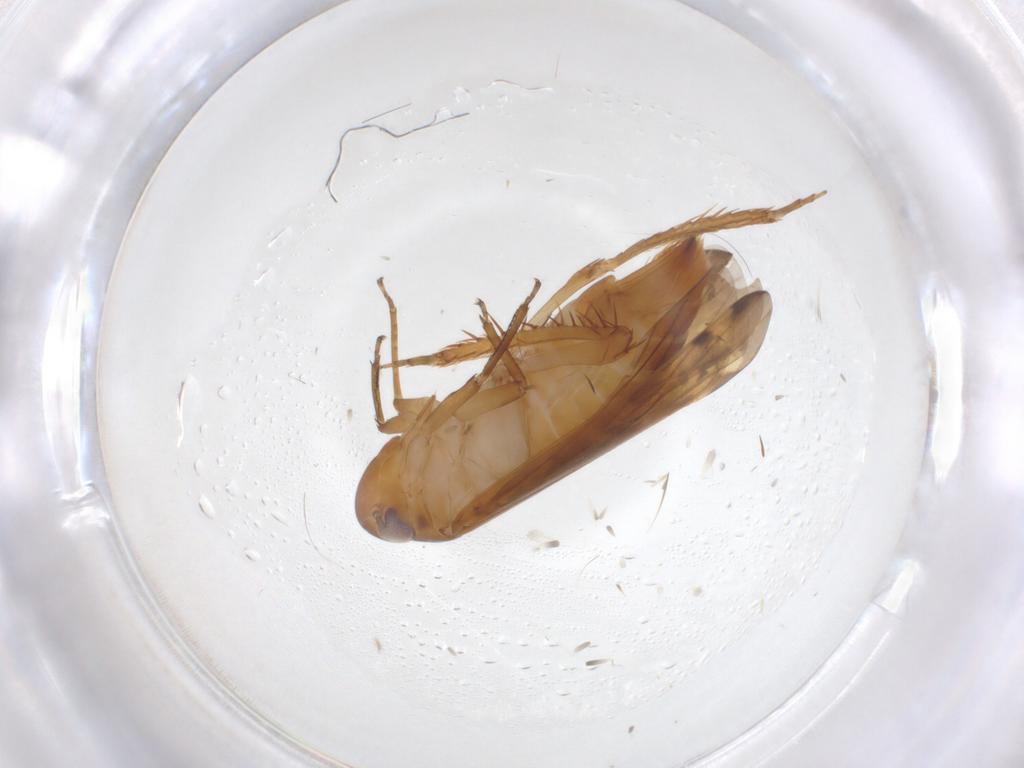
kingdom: Animalia
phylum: Arthropoda
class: Insecta
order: Hemiptera
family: Cicadellidae
